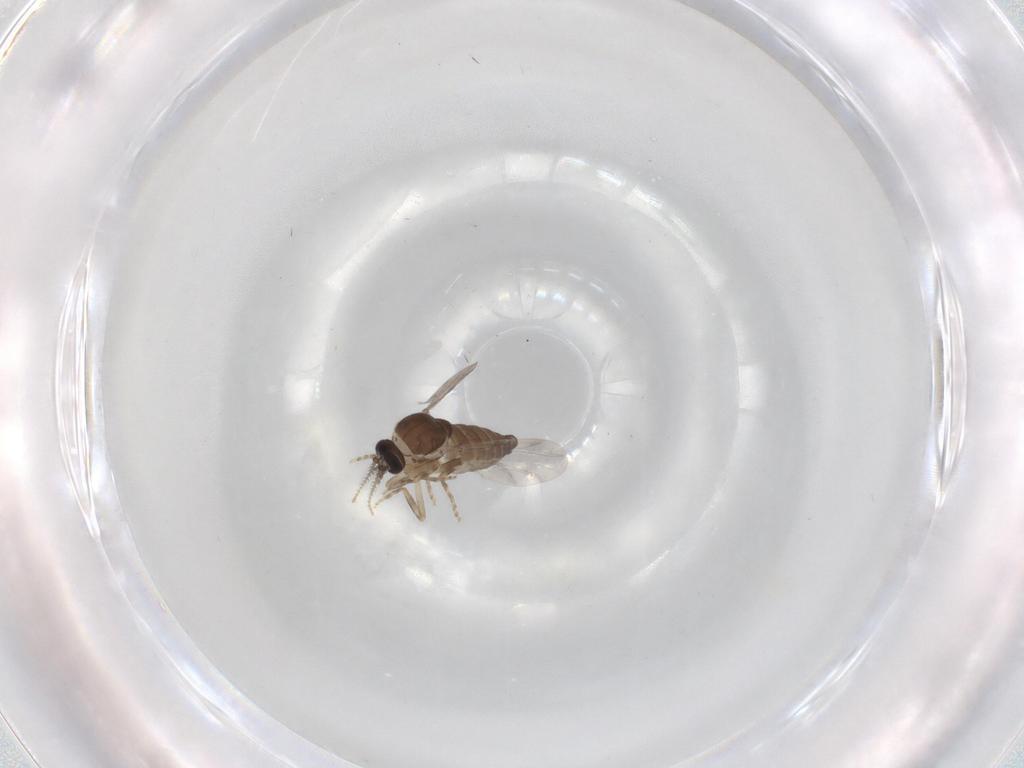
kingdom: Animalia
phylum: Arthropoda
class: Insecta
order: Diptera
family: Ceratopogonidae
